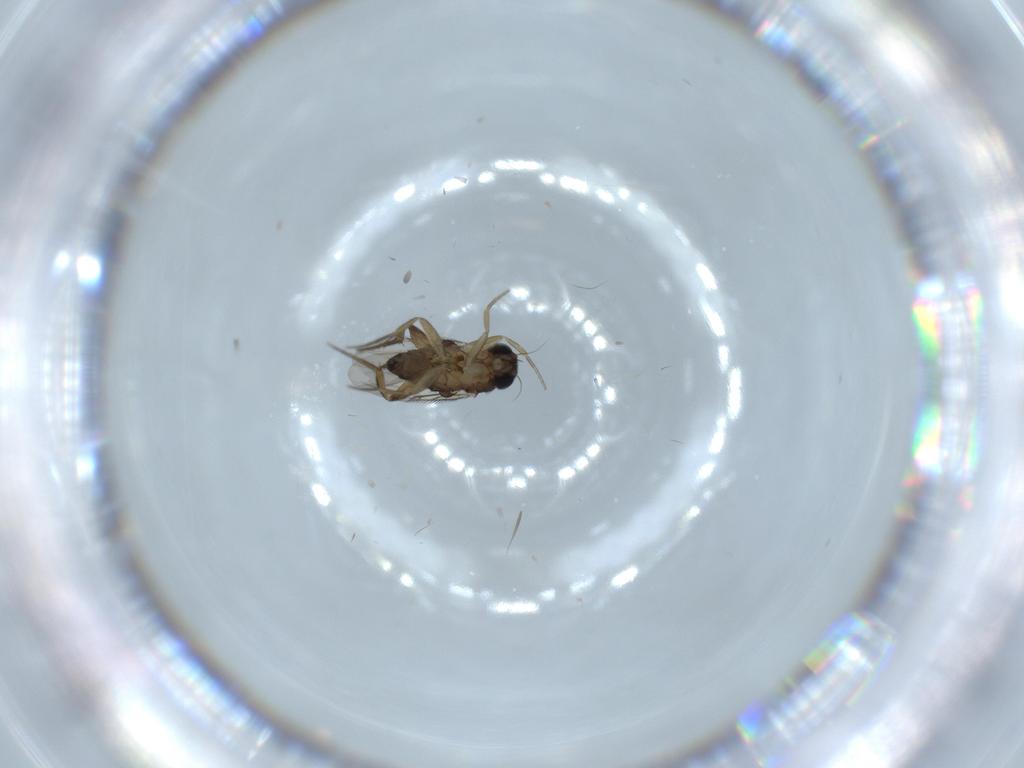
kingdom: Animalia
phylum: Arthropoda
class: Insecta
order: Diptera
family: Phoridae
